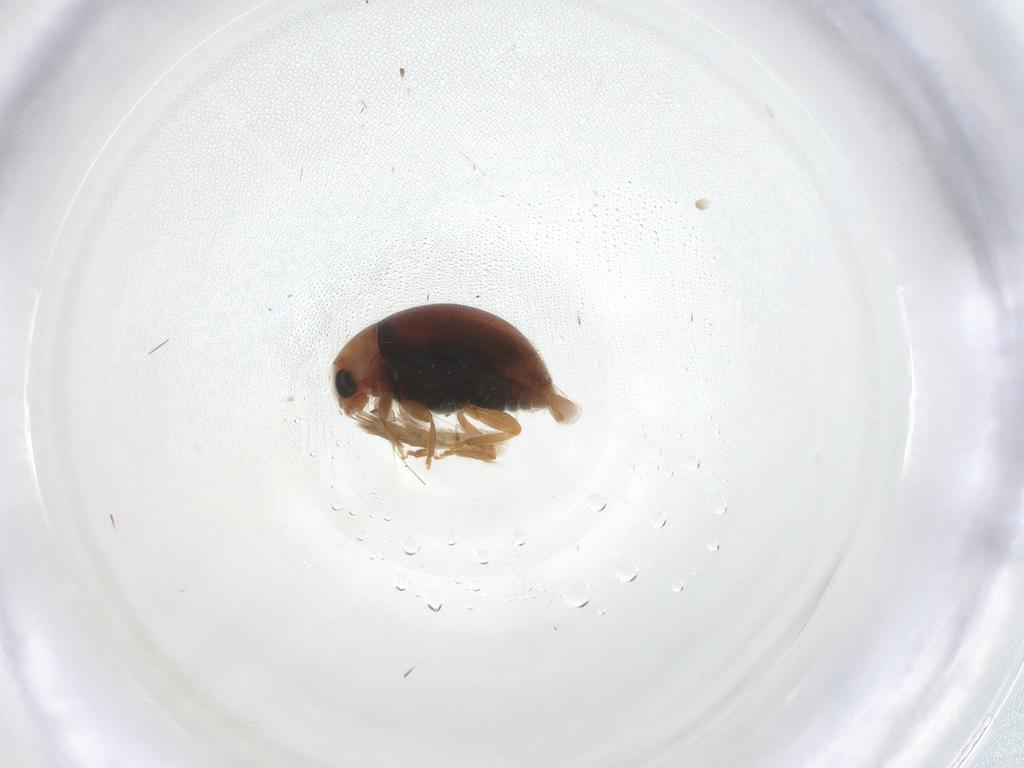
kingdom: Animalia
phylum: Arthropoda
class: Insecta
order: Coleoptera
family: Coccinellidae
